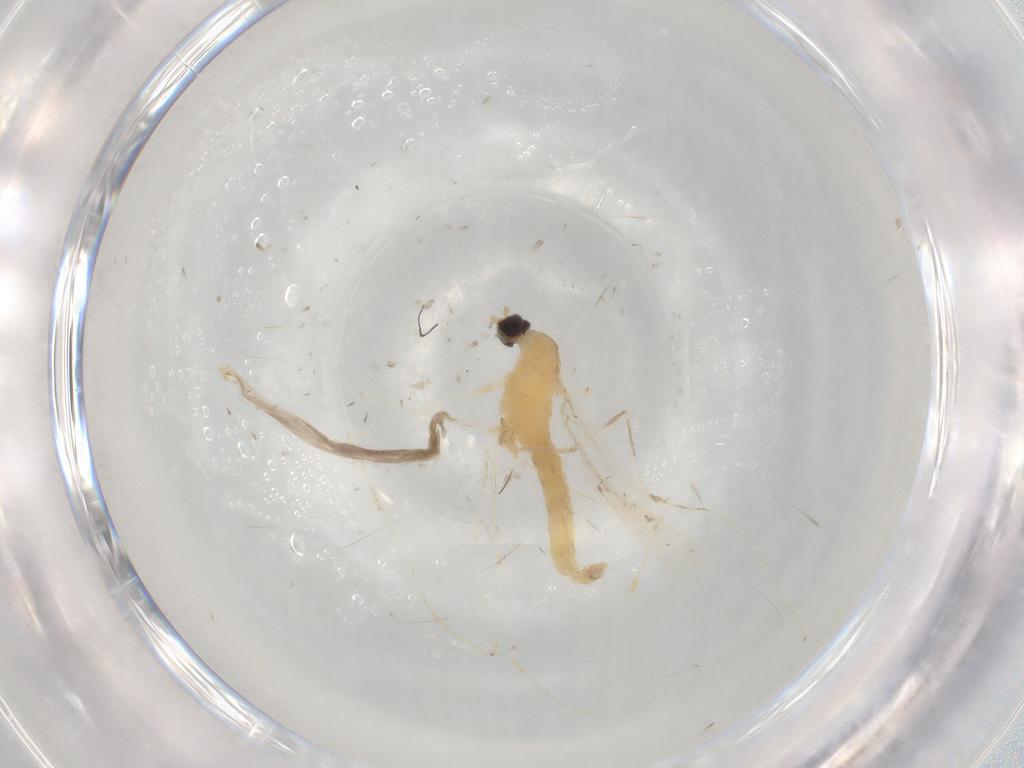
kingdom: Animalia
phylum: Arthropoda
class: Insecta
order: Diptera
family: Cecidomyiidae
